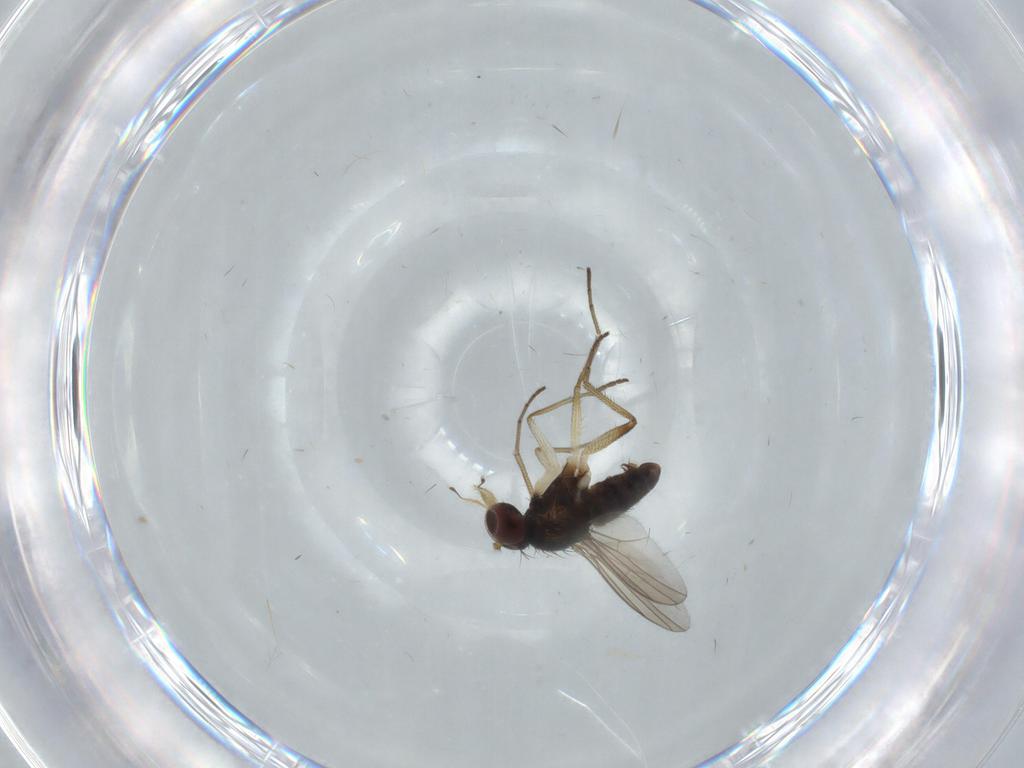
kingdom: Animalia
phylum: Arthropoda
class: Insecta
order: Diptera
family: Dolichopodidae
